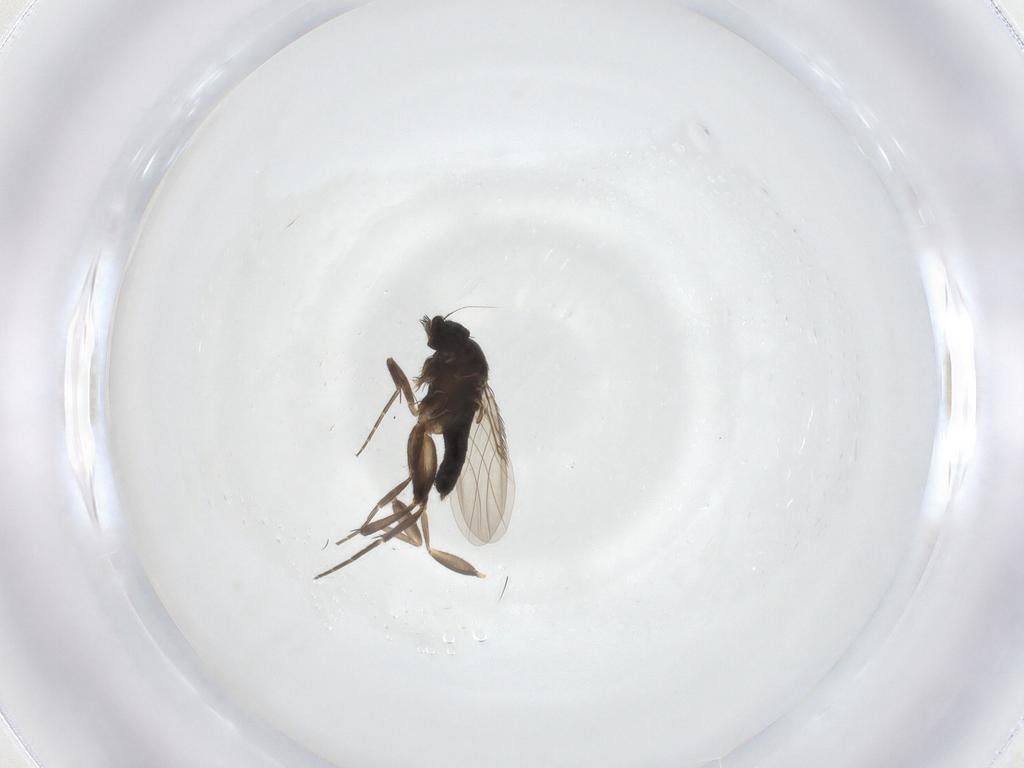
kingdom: Animalia
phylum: Arthropoda
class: Insecta
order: Diptera
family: Phoridae
